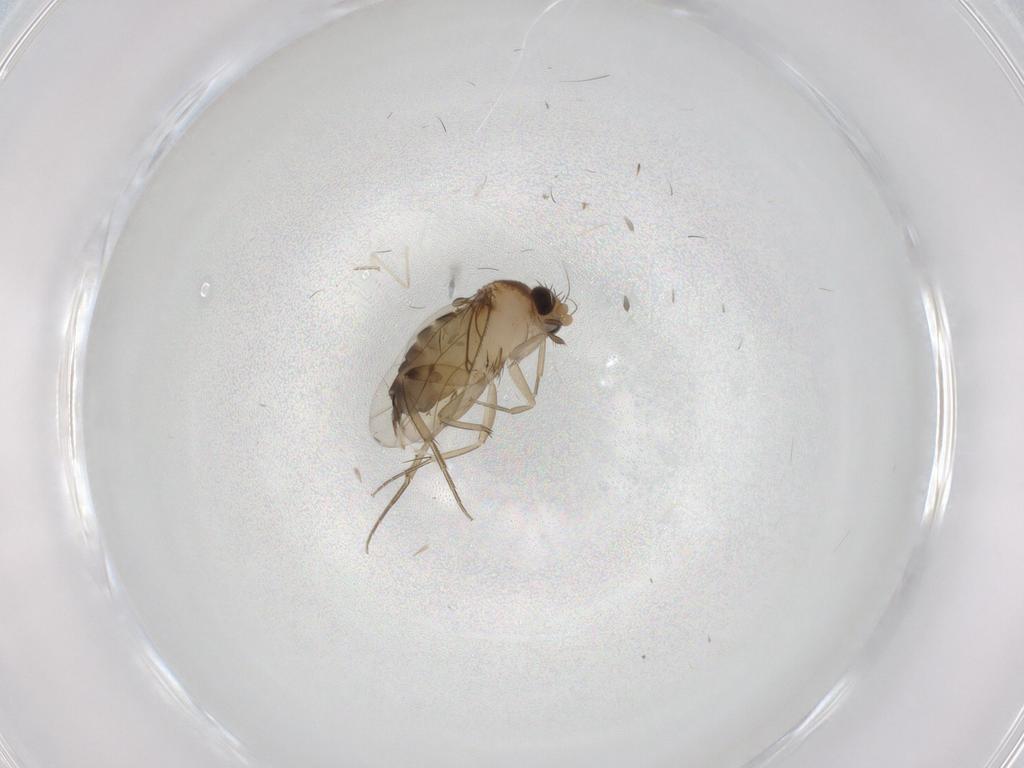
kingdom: Animalia
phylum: Arthropoda
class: Insecta
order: Diptera
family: Phoridae
